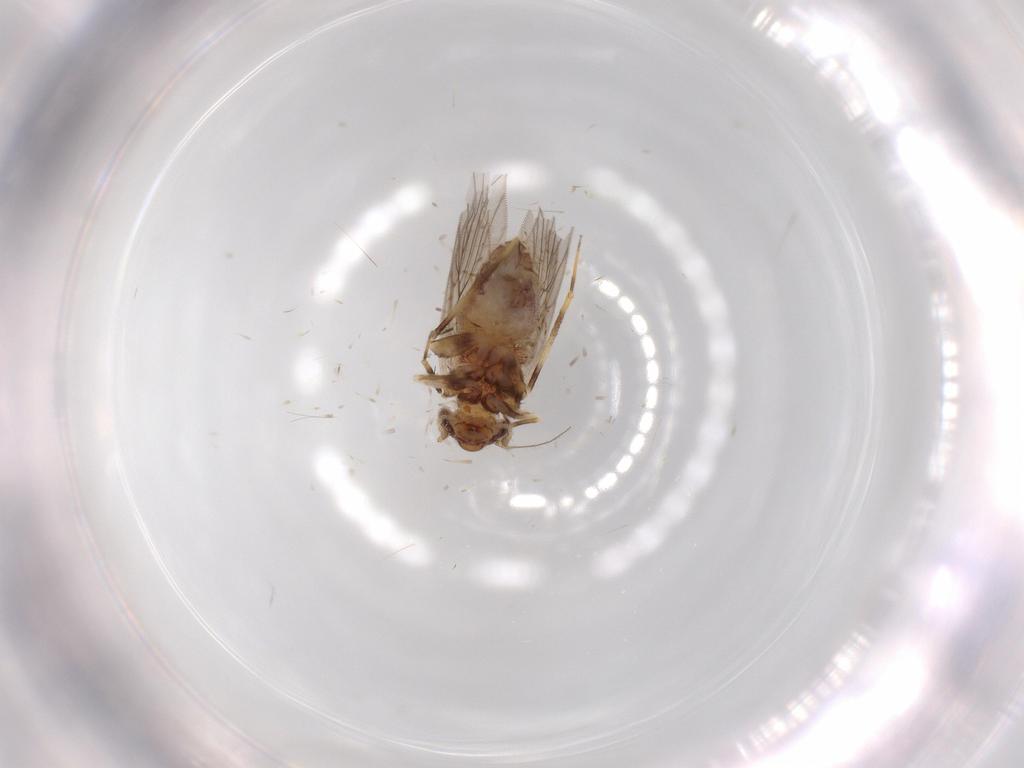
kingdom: Animalia
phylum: Arthropoda
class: Insecta
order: Psocodea
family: Lepidopsocidae
